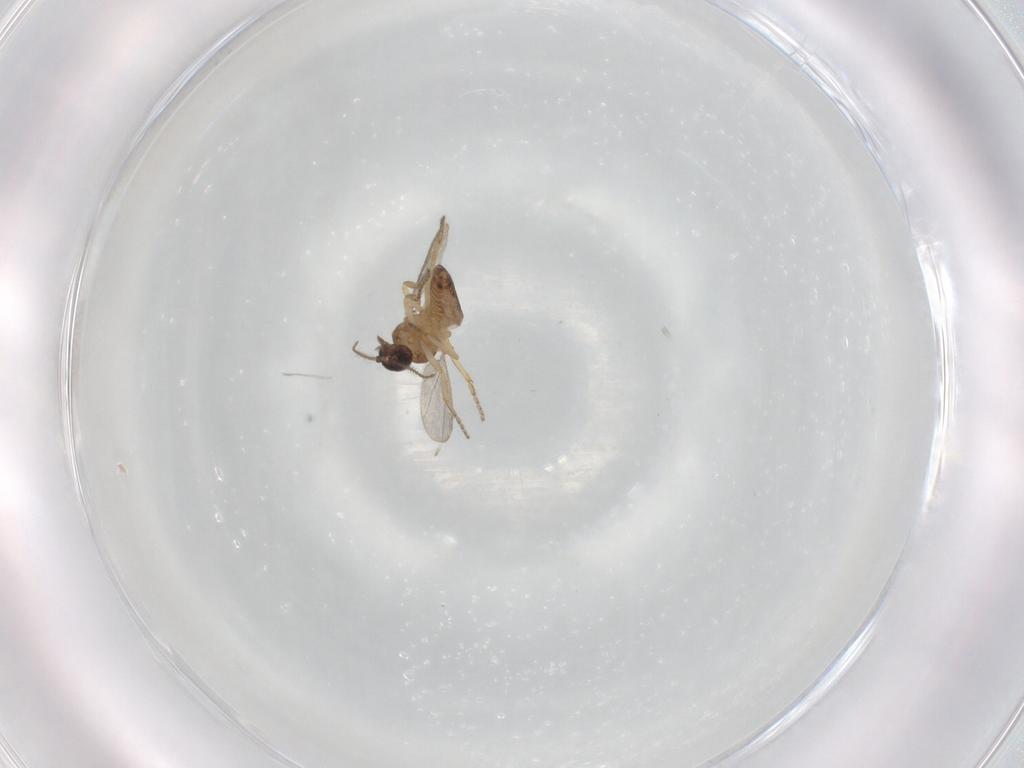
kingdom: Animalia
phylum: Arthropoda
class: Insecta
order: Diptera
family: Ceratopogonidae
